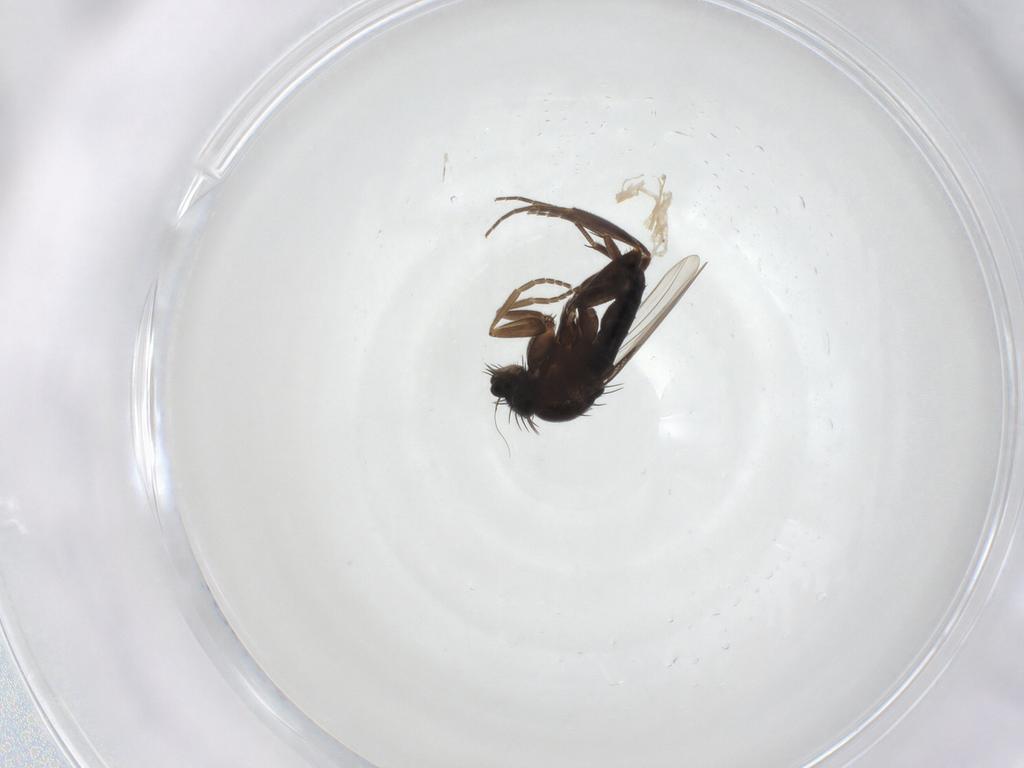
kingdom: Animalia
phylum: Arthropoda
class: Insecta
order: Diptera
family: Phoridae
